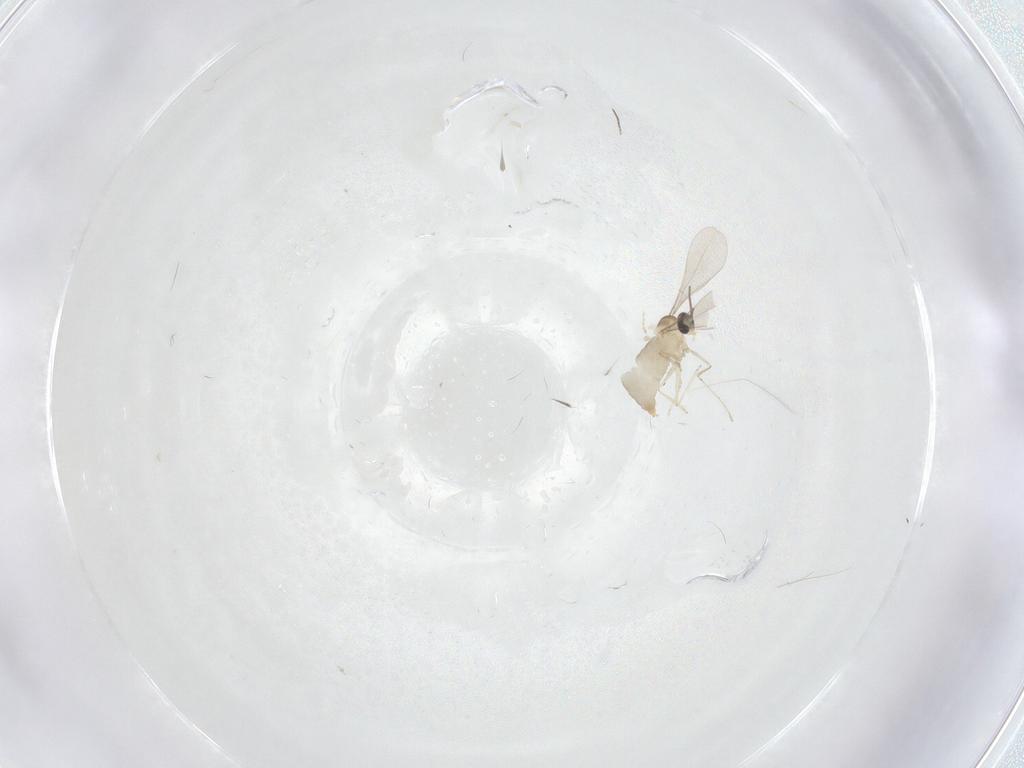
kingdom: Animalia
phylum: Arthropoda
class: Insecta
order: Diptera
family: Cecidomyiidae
